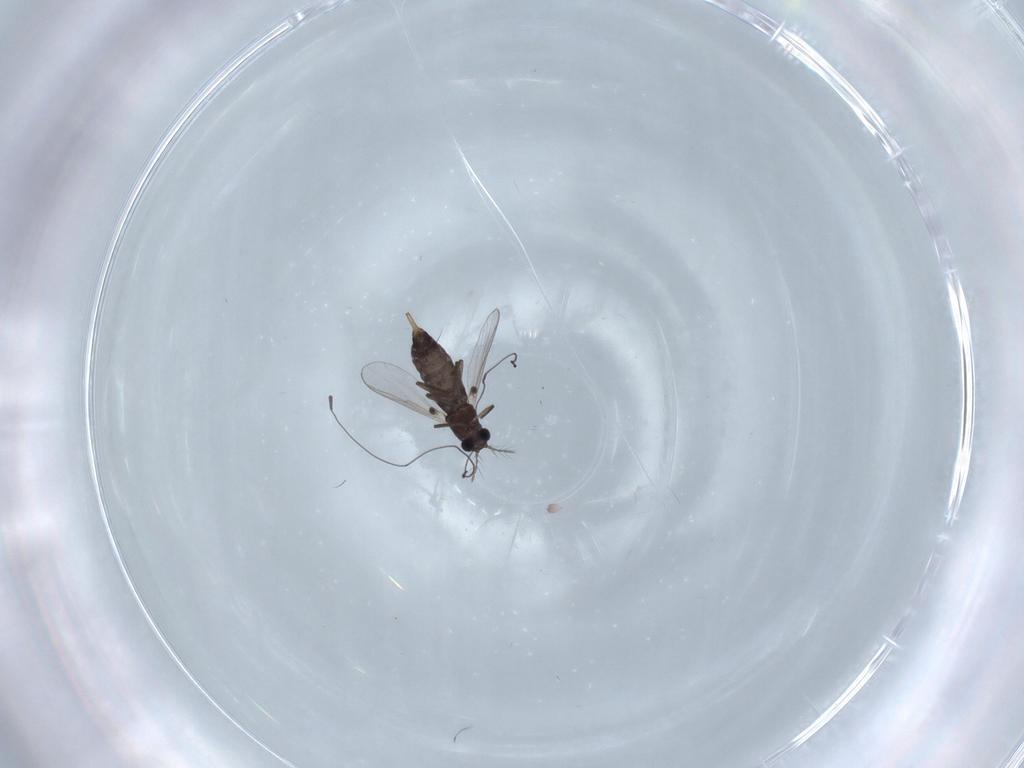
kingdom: Animalia
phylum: Arthropoda
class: Insecta
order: Diptera
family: Chironomidae
